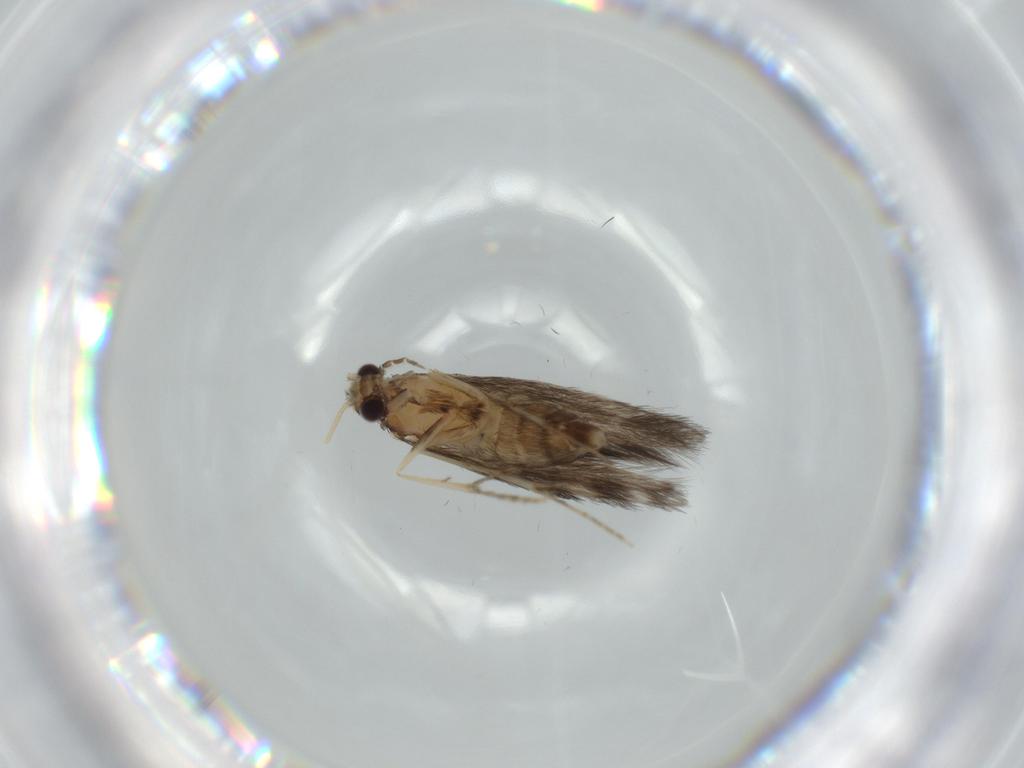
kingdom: Animalia
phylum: Arthropoda
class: Insecta
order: Trichoptera
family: Hydroptilidae
